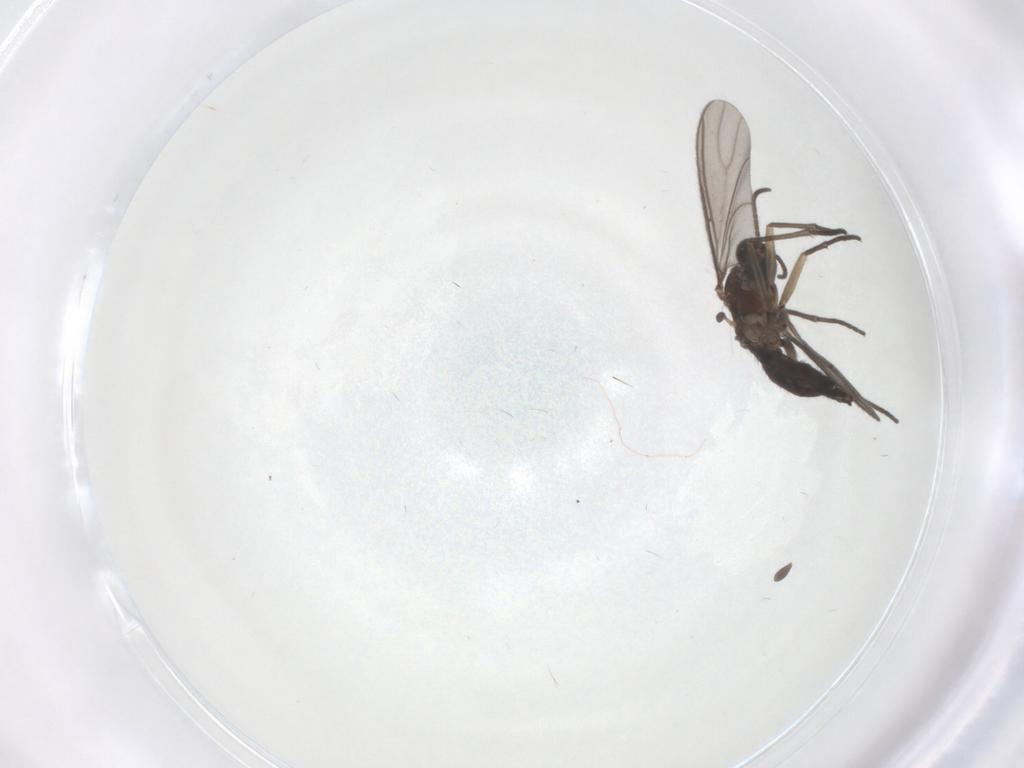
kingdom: Animalia
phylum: Arthropoda
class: Insecta
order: Diptera
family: Sciaridae
